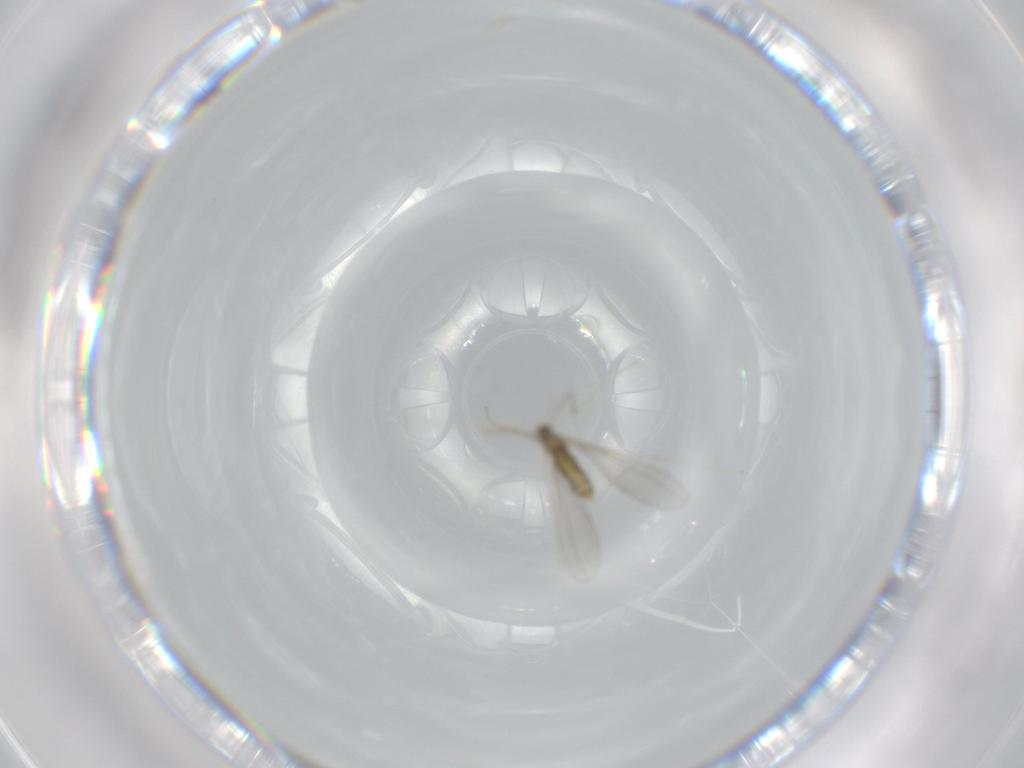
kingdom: Animalia
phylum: Arthropoda
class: Insecta
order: Diptera
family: Cecidomyiidae
